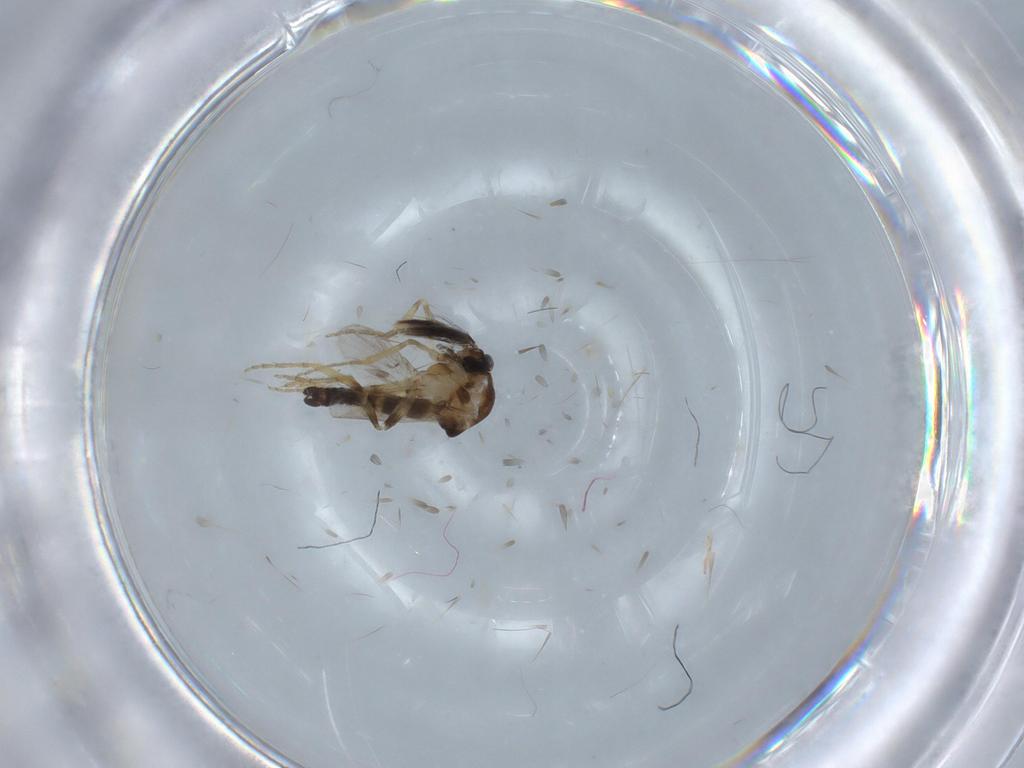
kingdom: Animalia
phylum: Arthropoda
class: Insecta
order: Diptera
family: Ceratopogonidae
